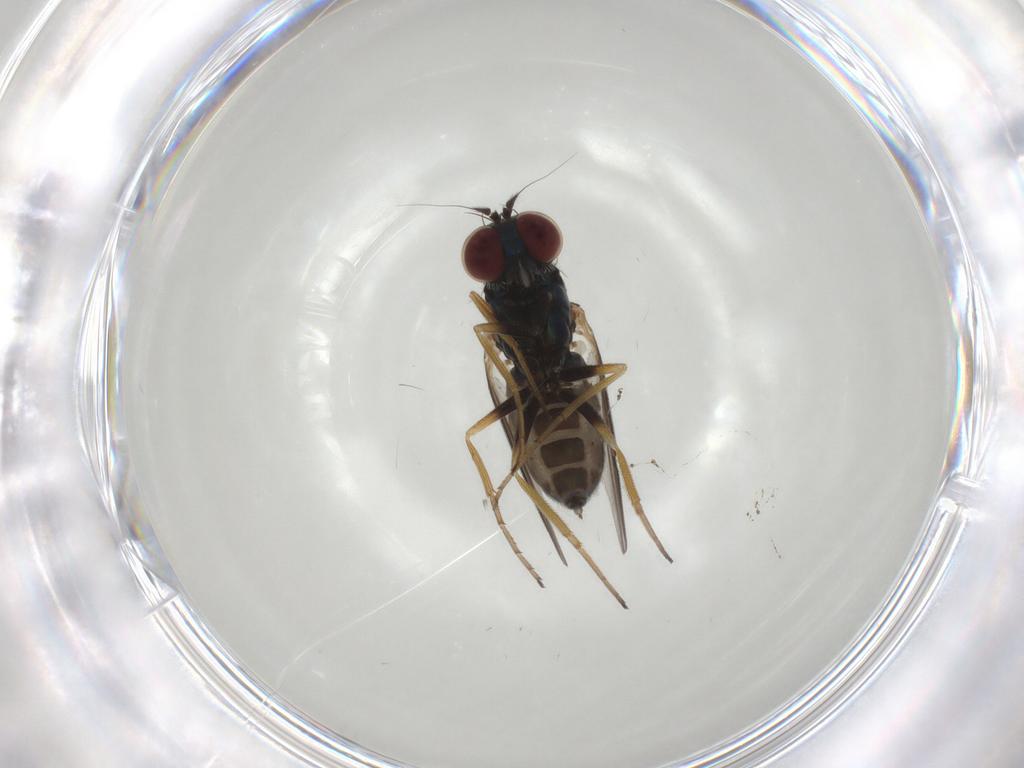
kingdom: Animalia
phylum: Arthropoda
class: Insecta
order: Diptera
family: Dolichopodidae
